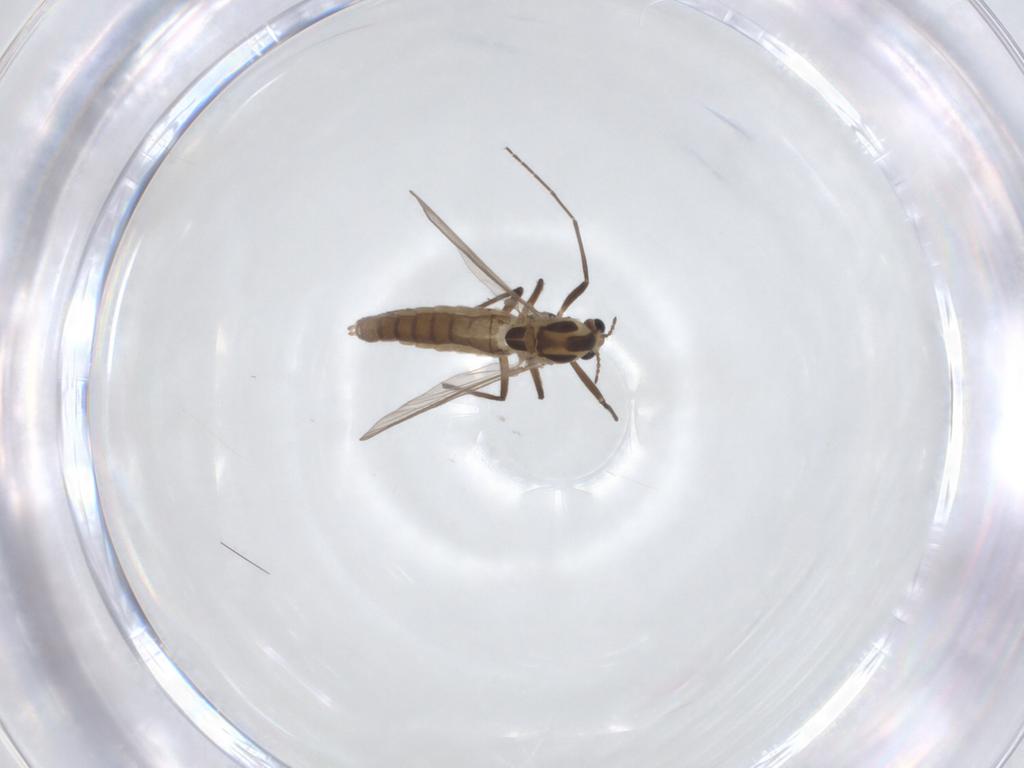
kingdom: Animalia
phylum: Arthropoda
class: Insecta
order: Diptera
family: Chironomidae
